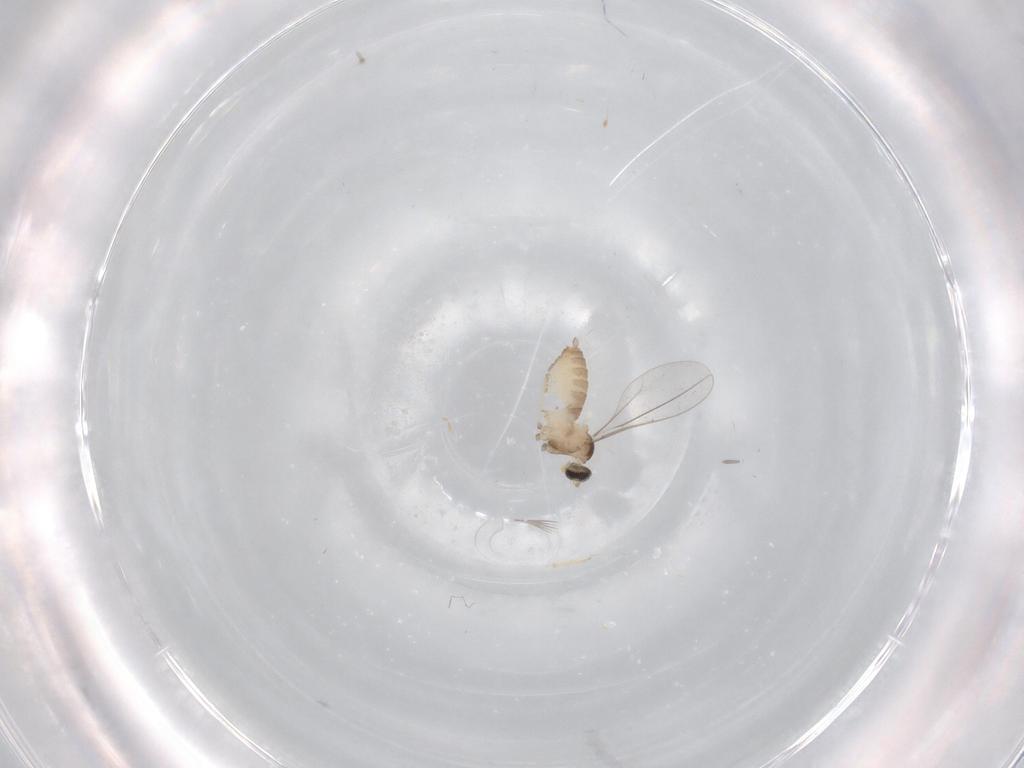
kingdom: Animalia
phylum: Arthropoda
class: Insecta
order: Diptera
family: Cecidomyiidae
